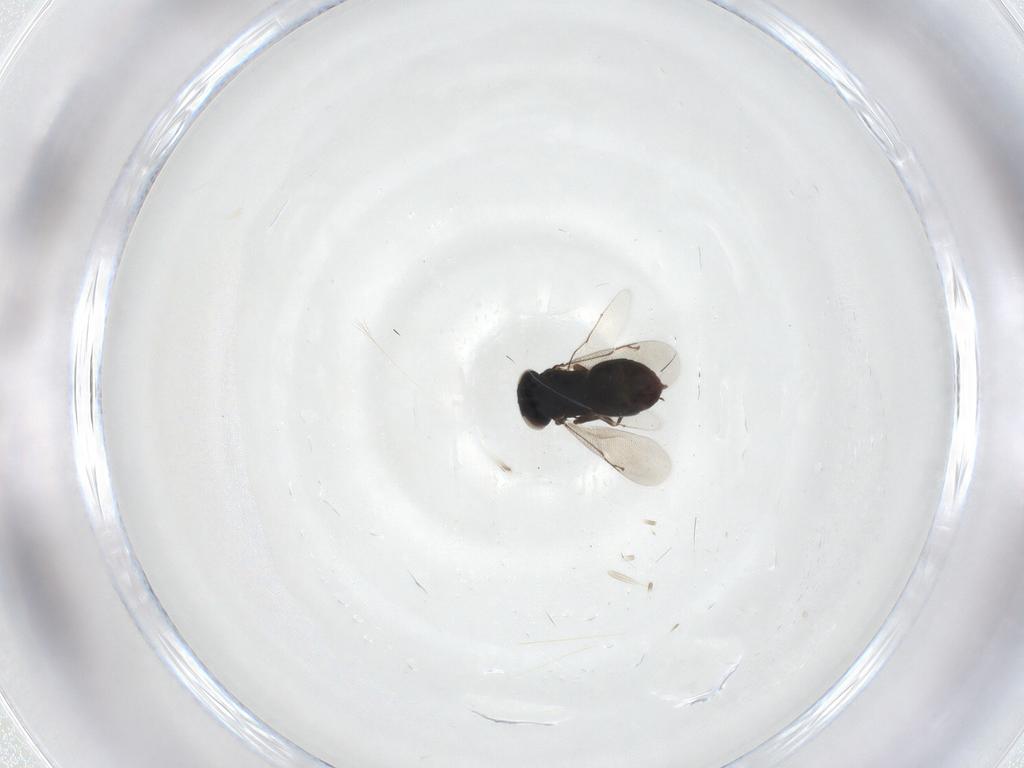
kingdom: Animalia
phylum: Arthropoda
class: Insecta
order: Hymenoptera
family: Eunotidae
